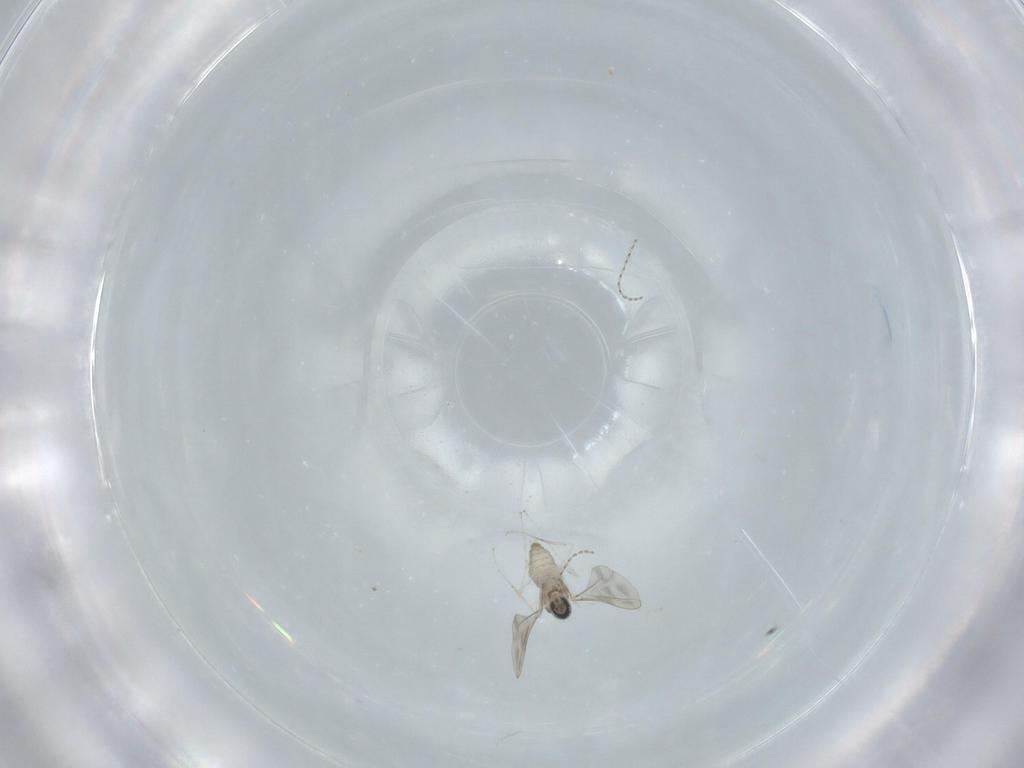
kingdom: Animalia
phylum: Arthropoda
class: Insecta
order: Diptera
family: Cecidomyiidae
